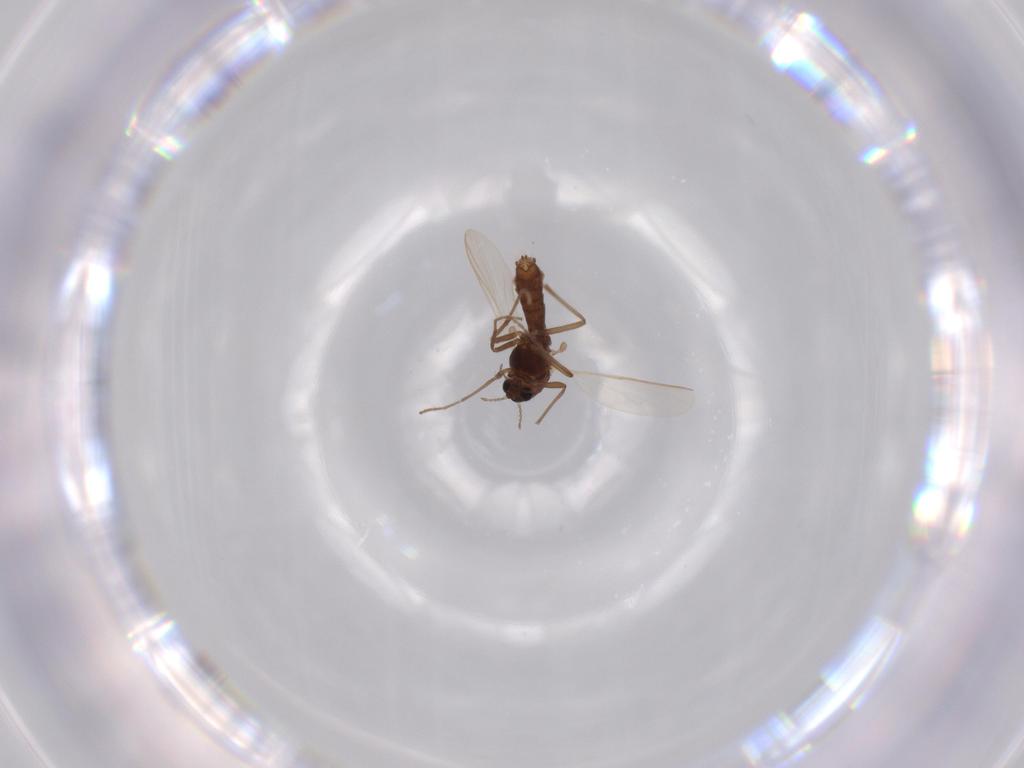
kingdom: Animalia
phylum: Arthropoda
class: Insecta
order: Diptera
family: Chironomidae
